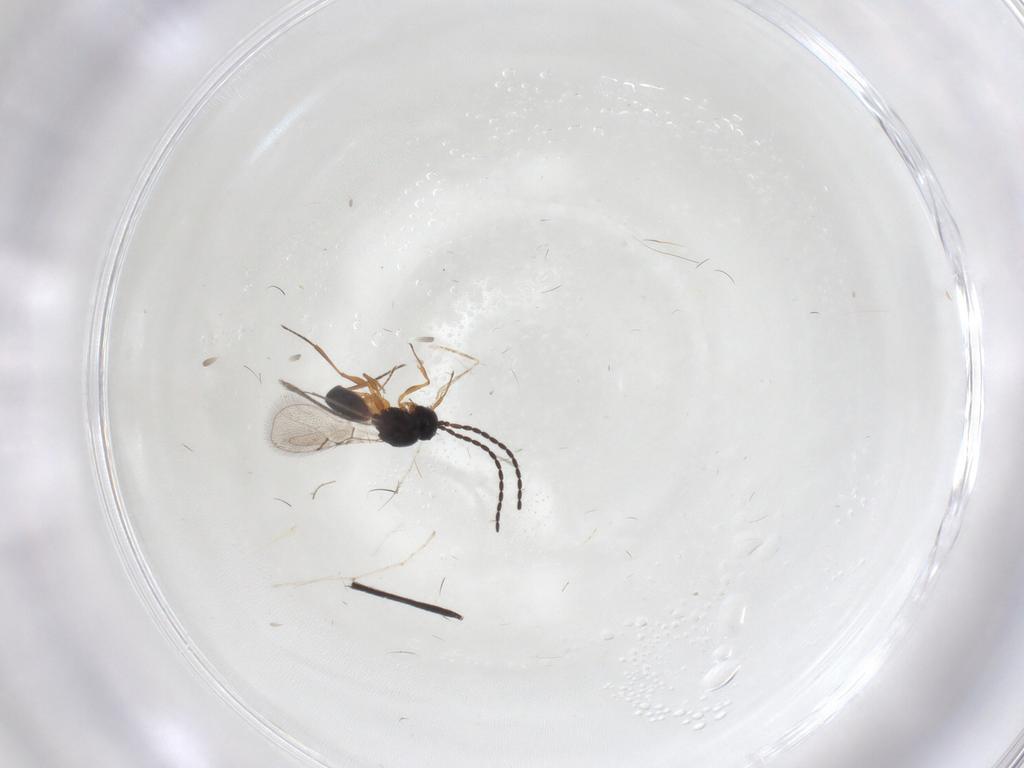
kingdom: Animalia
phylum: Arthropoda
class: Insecta
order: Hymenoptera
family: Figitidae
